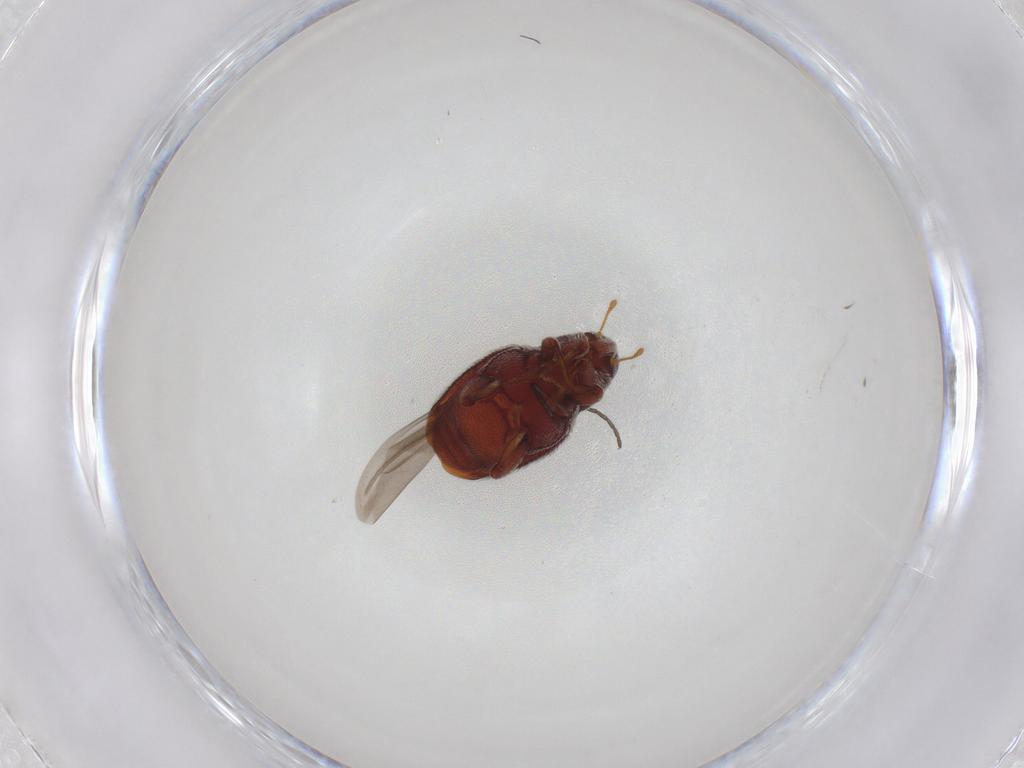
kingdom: Animalia
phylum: Arthropoda
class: Insecta
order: Coleoptera
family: Curculionidae
